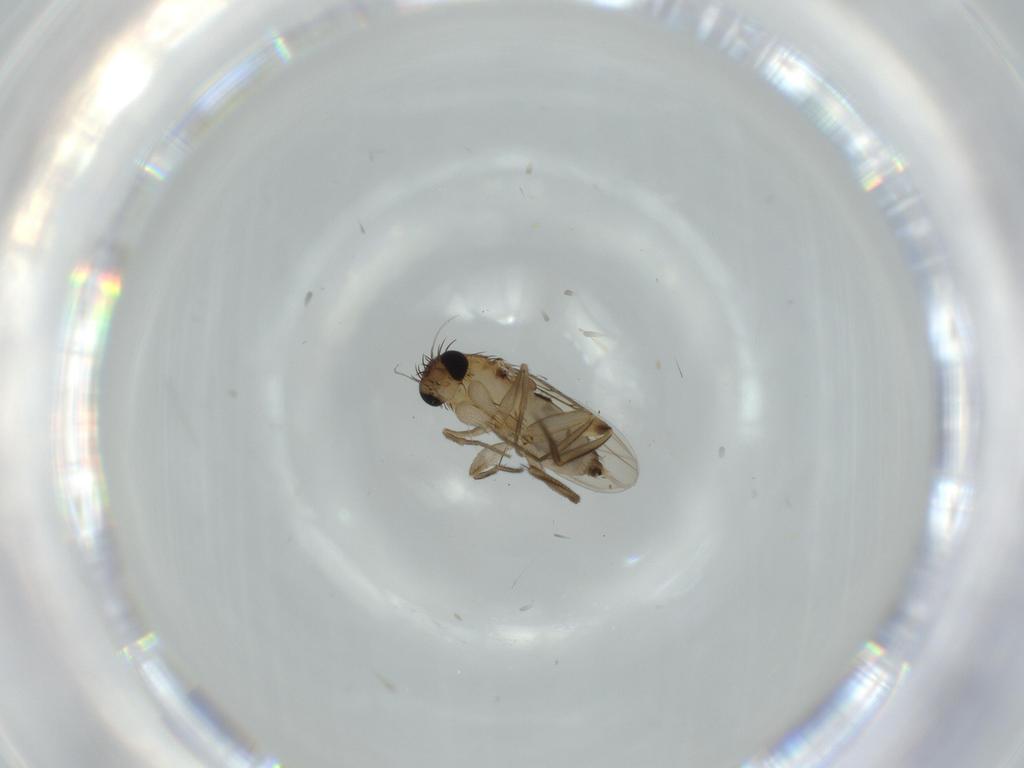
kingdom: Animalia
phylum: Arthropoda
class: Insecta
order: Diptera
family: Phoridae
